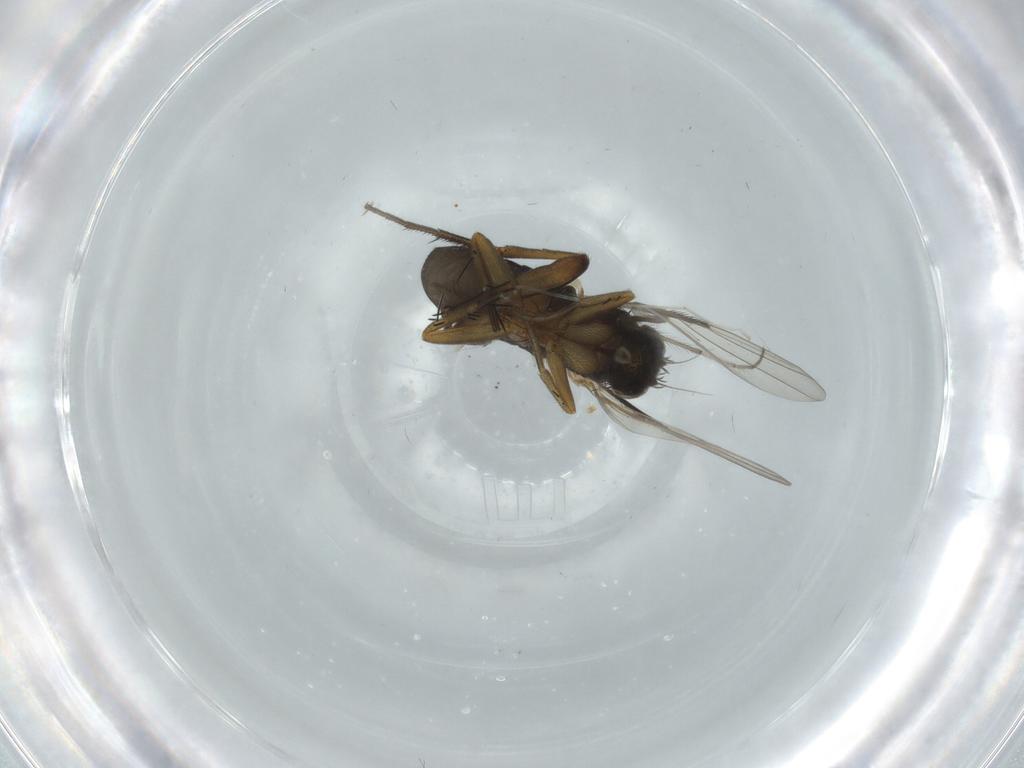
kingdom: Animalia
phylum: Arthropoda
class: Insecta
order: Diptera
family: Phoridae
